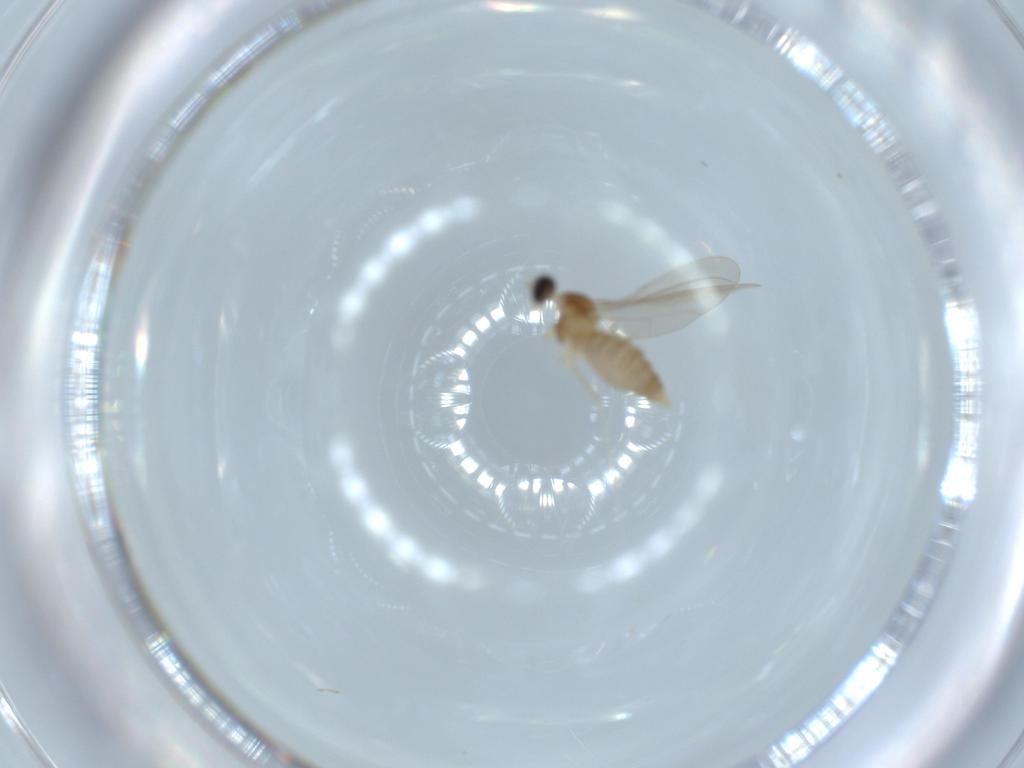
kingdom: Animalia
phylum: Arthropoda
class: Insecta
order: Diptera
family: Cecidomyiidae
